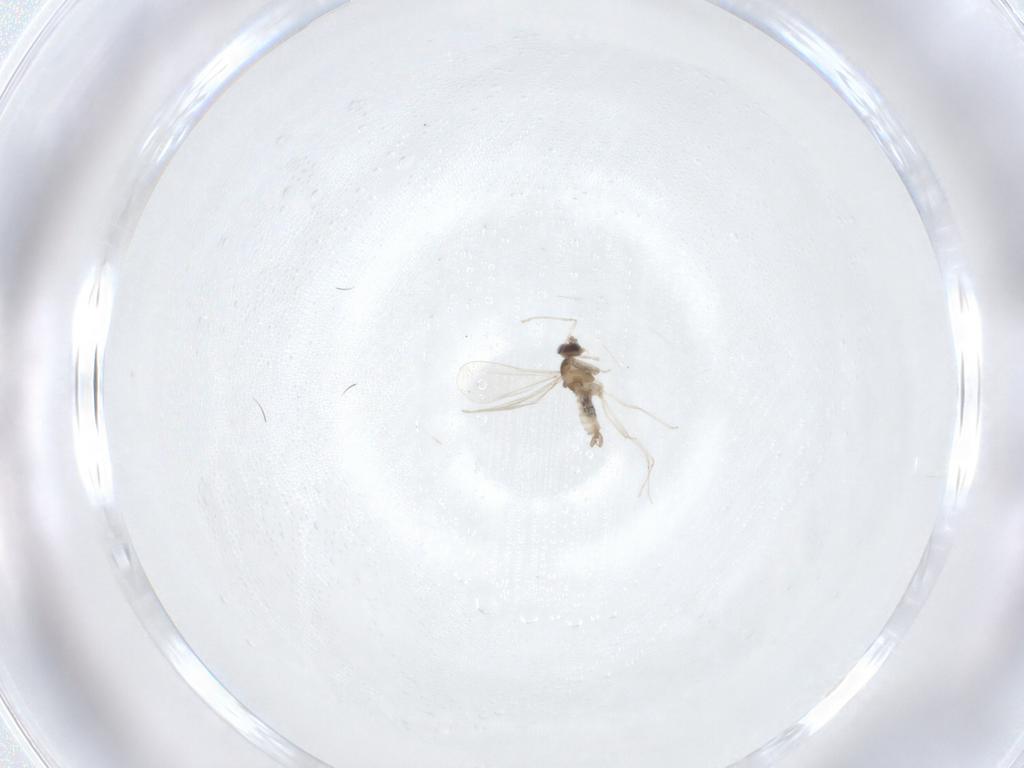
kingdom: Animalia
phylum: Arthropoda
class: Insecta
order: Diptera
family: Cecidomyiidae
